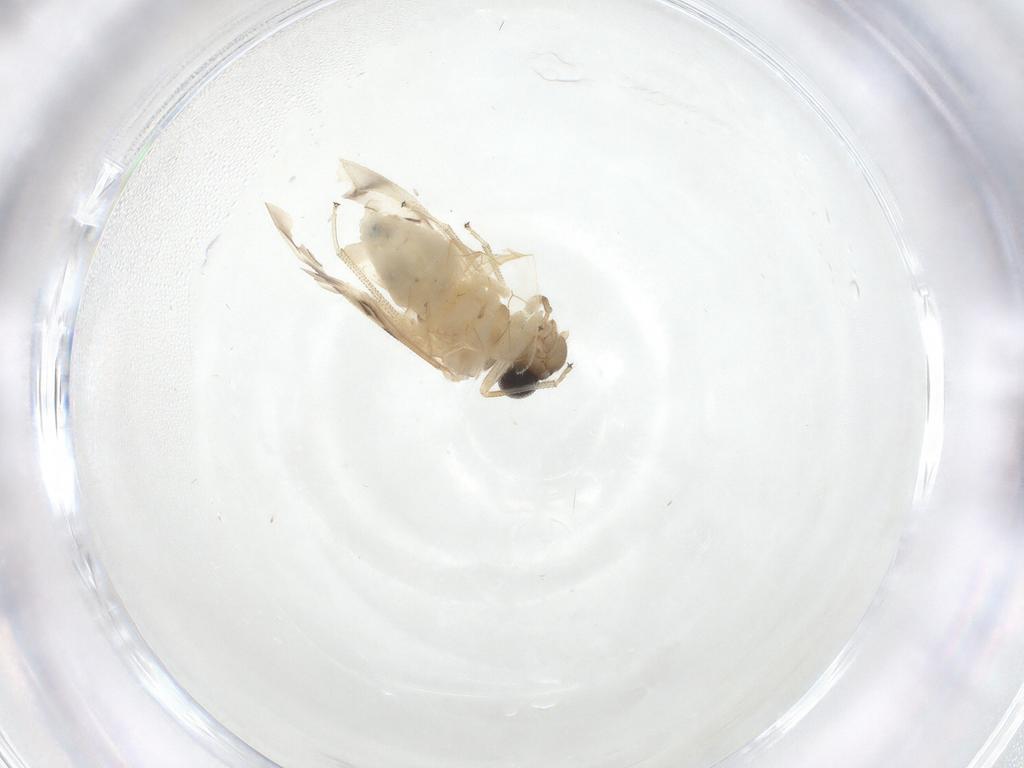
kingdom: Animalia
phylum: Arthropoda
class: Insecta
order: Psocodea
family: Caeciliusidae
